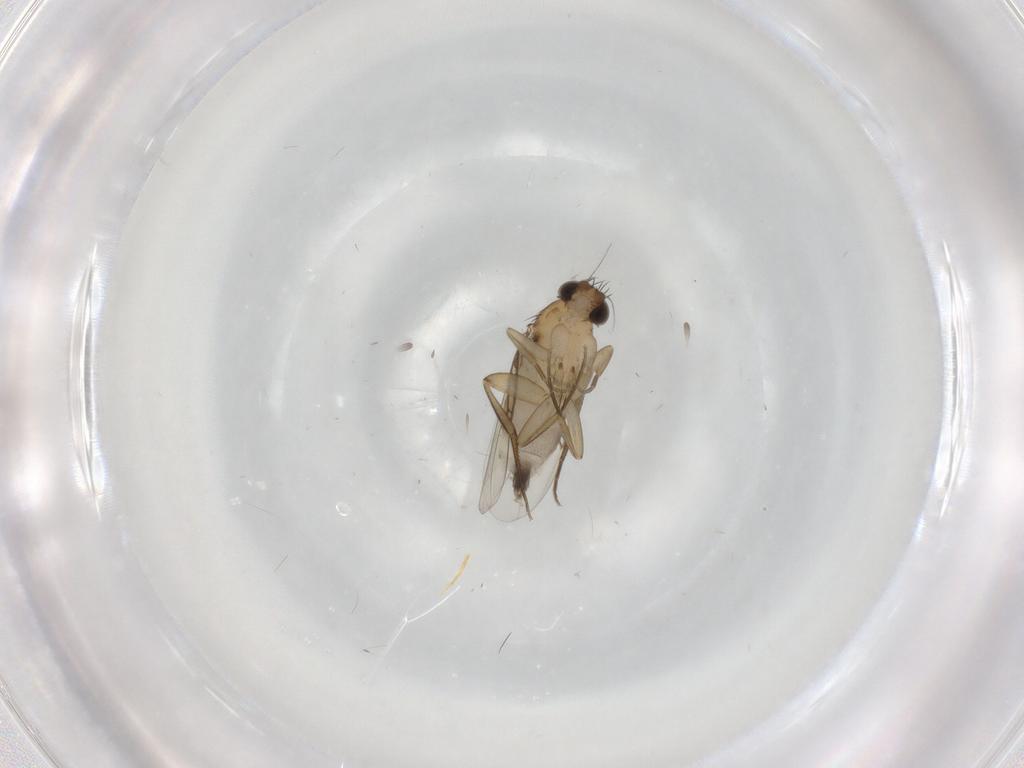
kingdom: Animalia
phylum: Arthropoda
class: Insecta
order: Diptera
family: Phoridae
